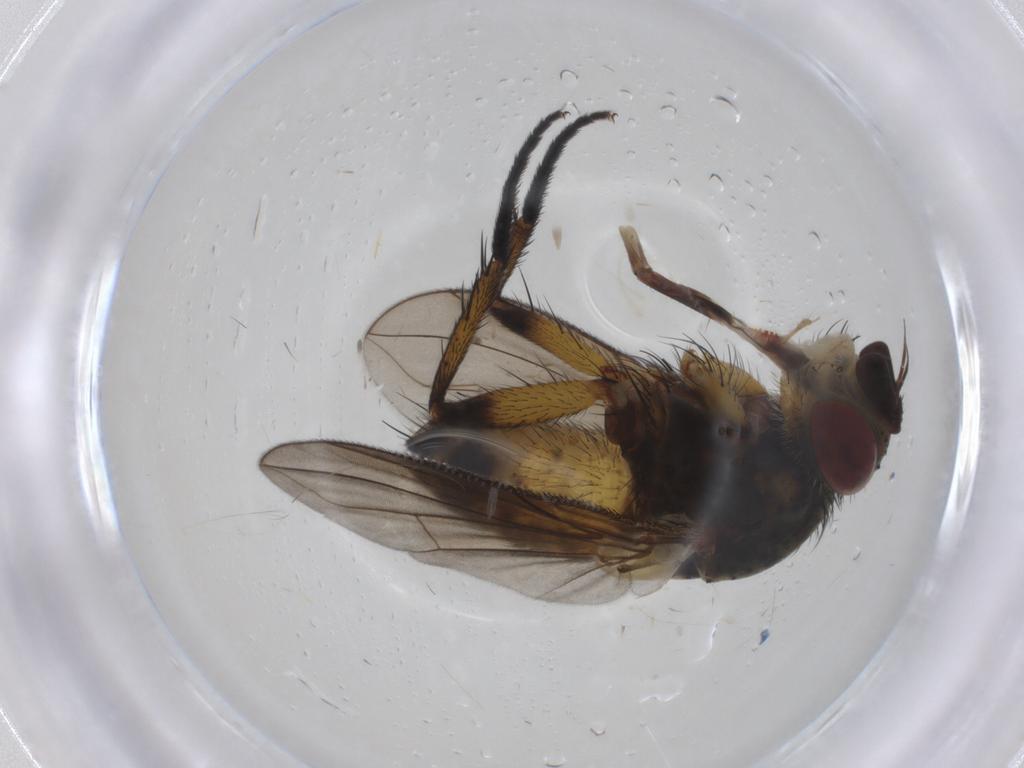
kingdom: Animalia
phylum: Arthropoda
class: Insecta
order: Diptera
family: Tachinidae
